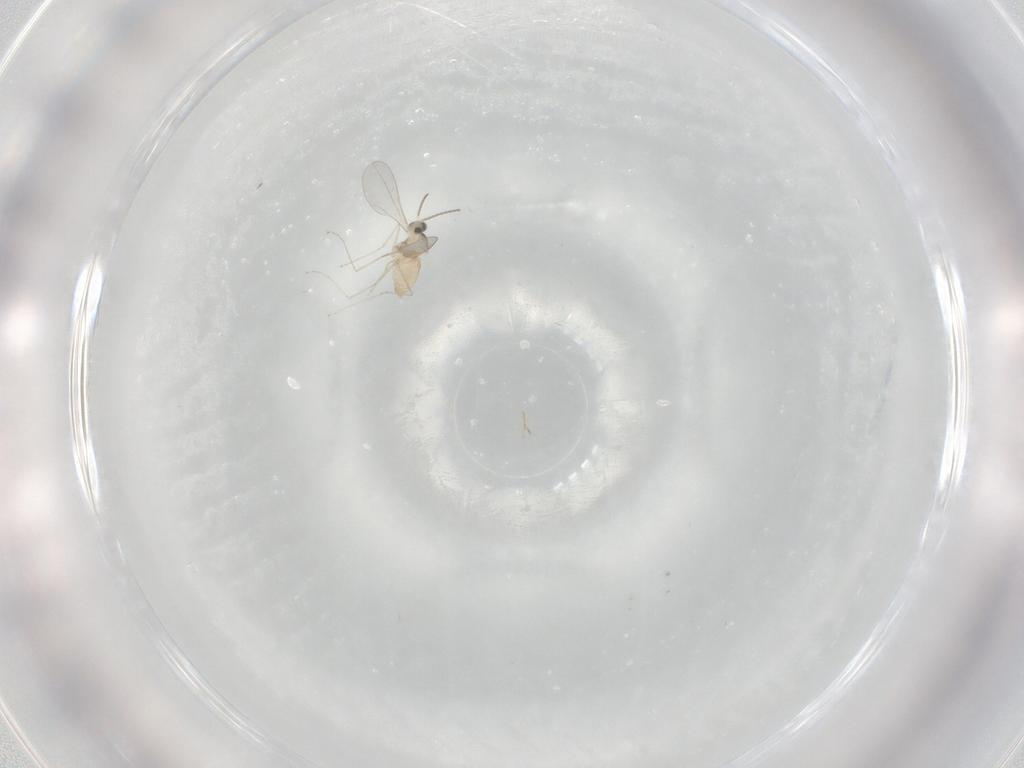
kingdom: Animalia
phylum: Arthropoda
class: Insecta
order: Diptera
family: Cecidomyiidae
